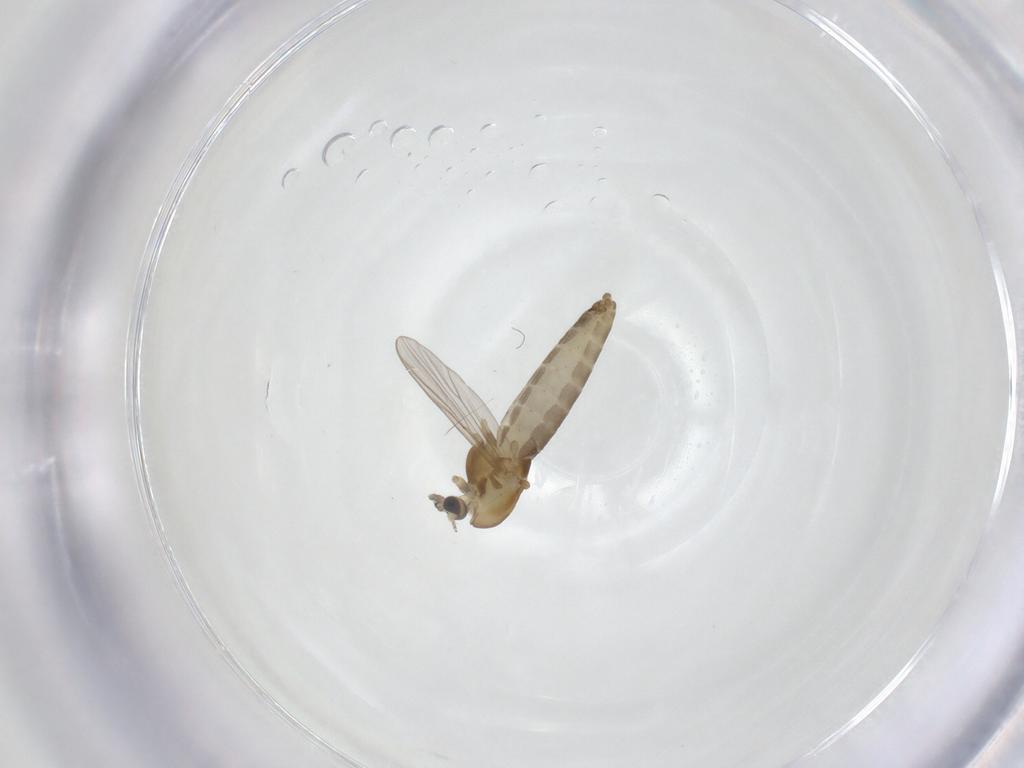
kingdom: Animalia
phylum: Arthropoda
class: Insecta
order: Diptera
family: Chironomidae
